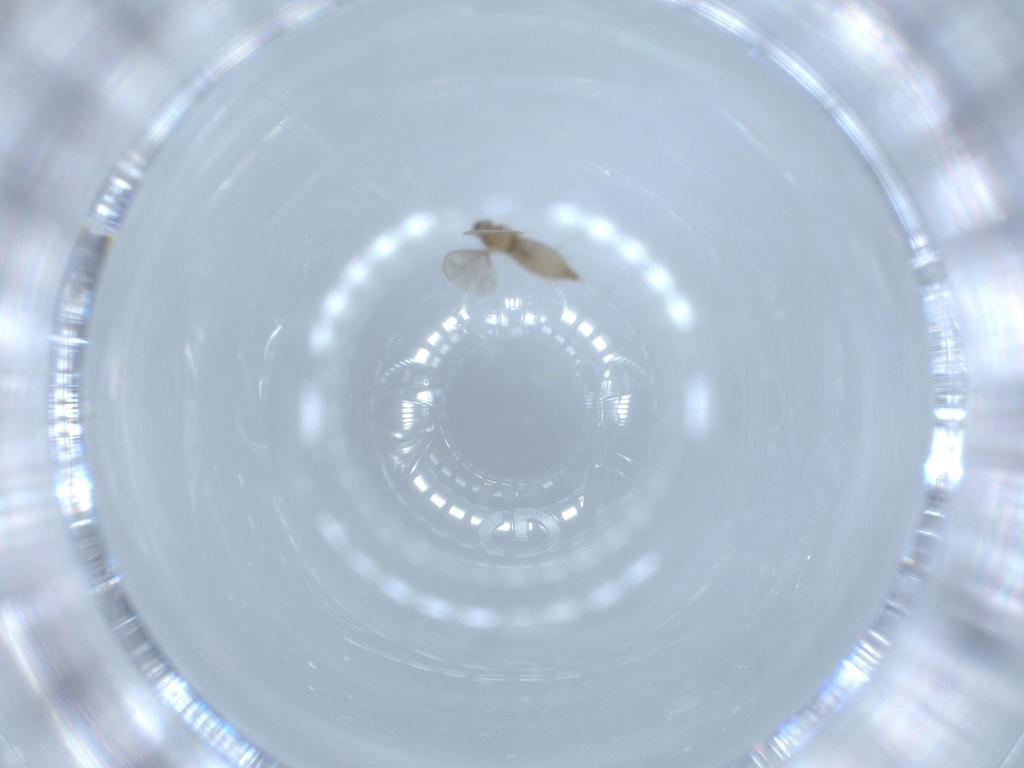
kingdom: Animalia
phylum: Arthropoda
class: Insecta
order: Diptera
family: Cecidomyiidae
